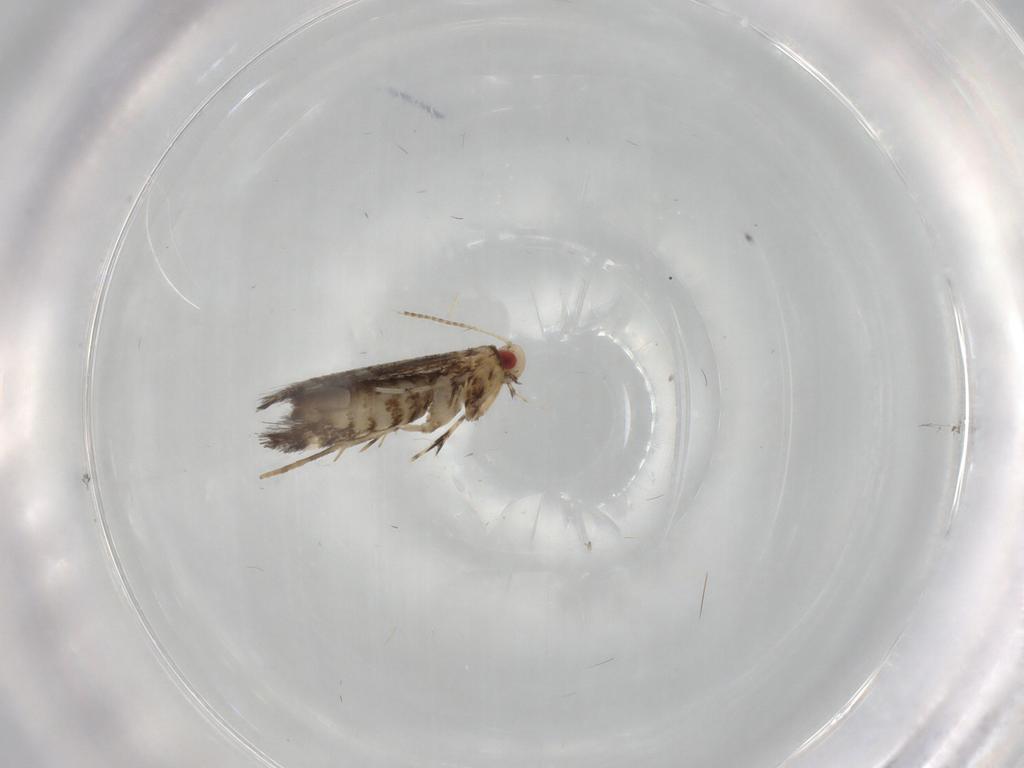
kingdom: Animalia
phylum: Arthropoda
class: Insecta
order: Lepidoptera
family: Gracillariidae
